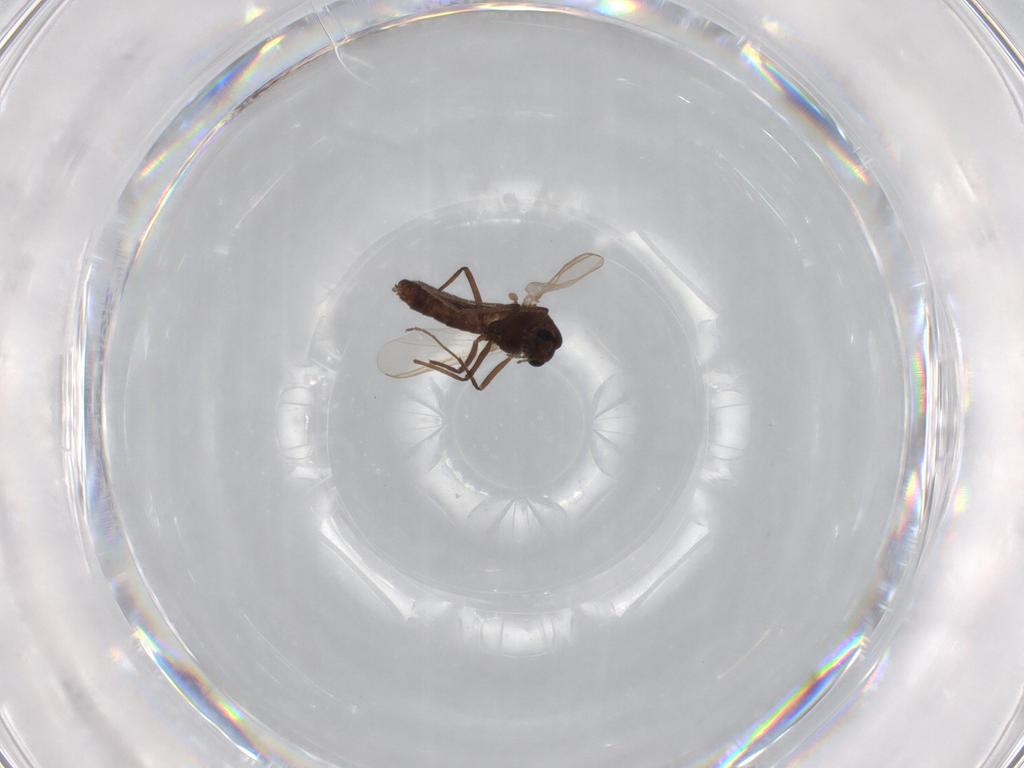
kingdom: Animalia
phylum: Arthropoda
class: Insecta
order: Diptera
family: Chironomidae
